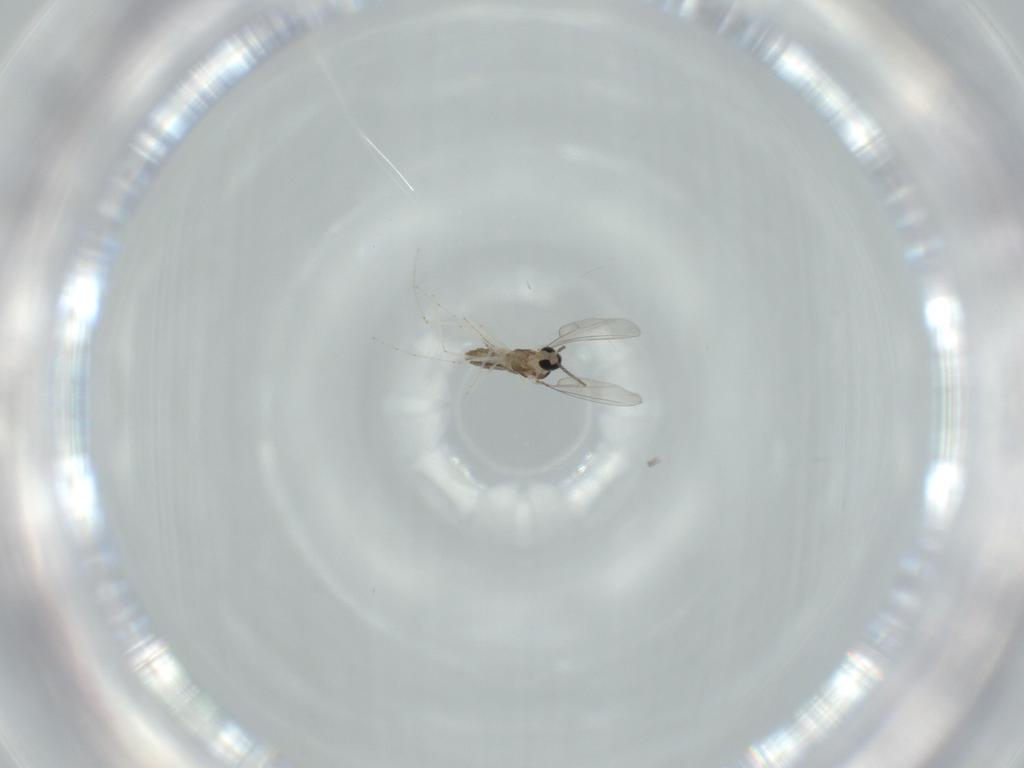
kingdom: Animalia
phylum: Arthropoda
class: Insecta
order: Diptera
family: Cecidomyiidae
